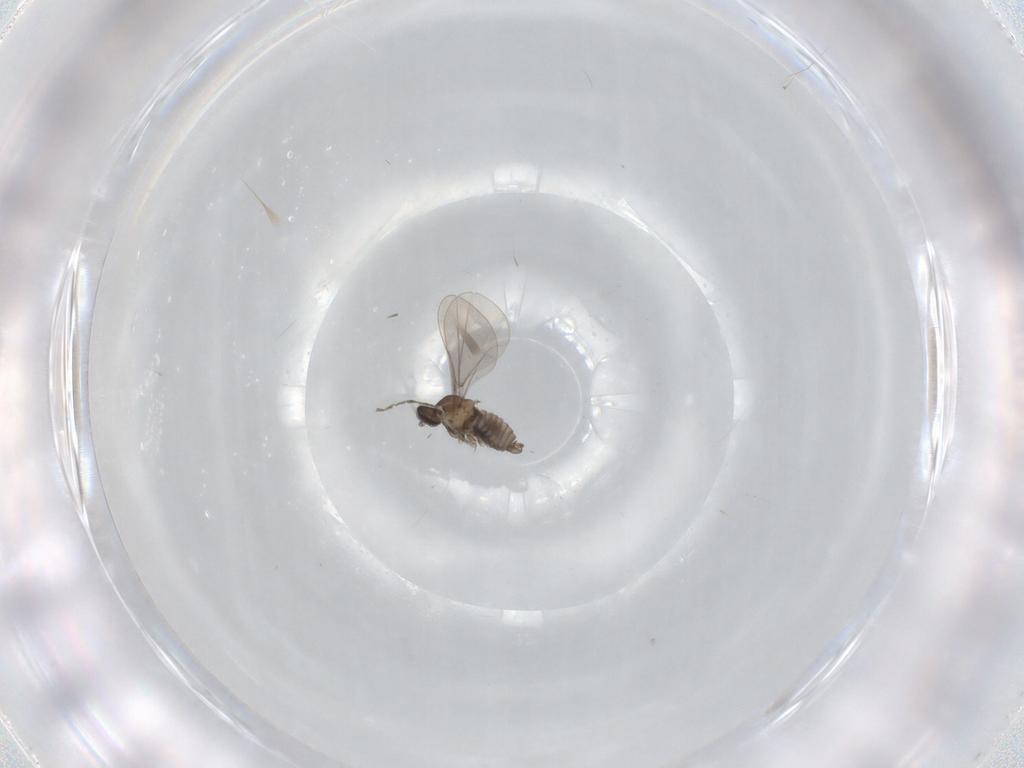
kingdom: Animalia
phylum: Arthropoda
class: Insecta
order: Diptera
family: Cecidomyiidae
